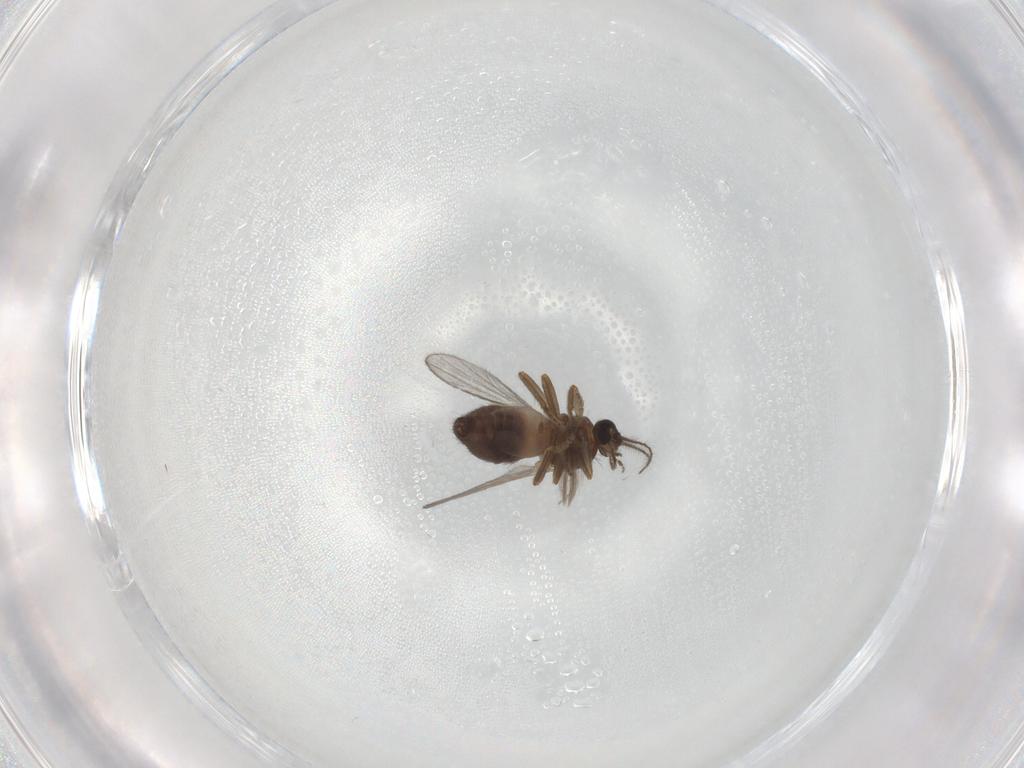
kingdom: Animalia
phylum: Arthropoda
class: Insecta
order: Diptera
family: Ceratopogonidae
